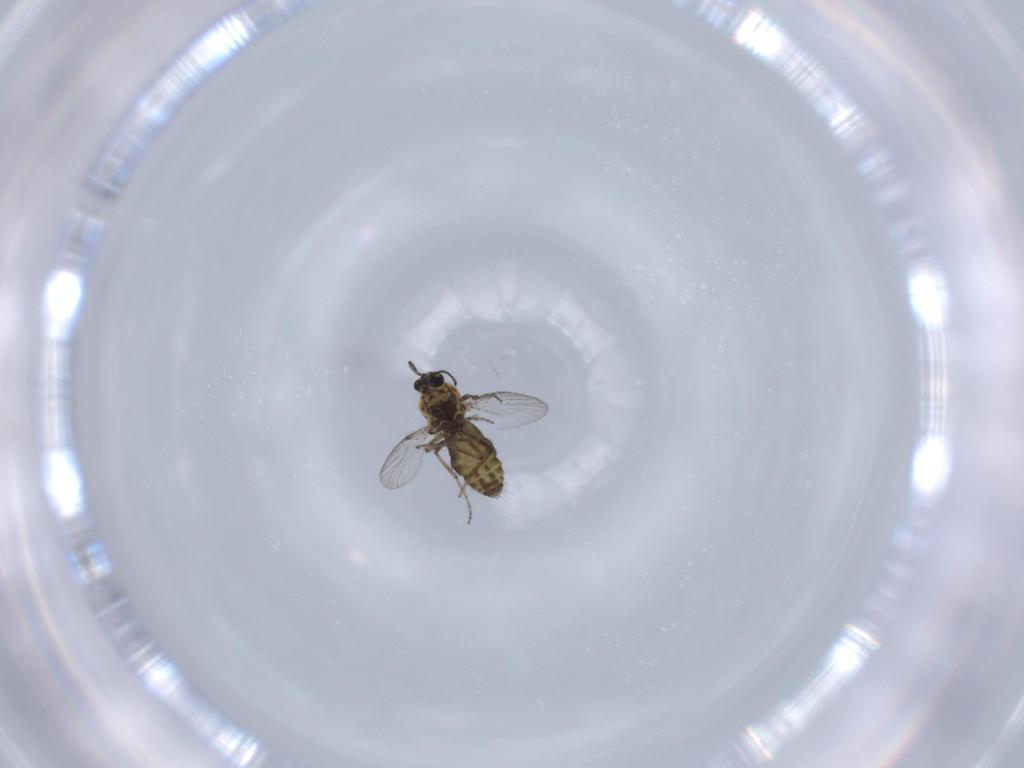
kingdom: Animalia
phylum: Arthropoda
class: Insecta
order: Diptera
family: Ceratopogonidae
